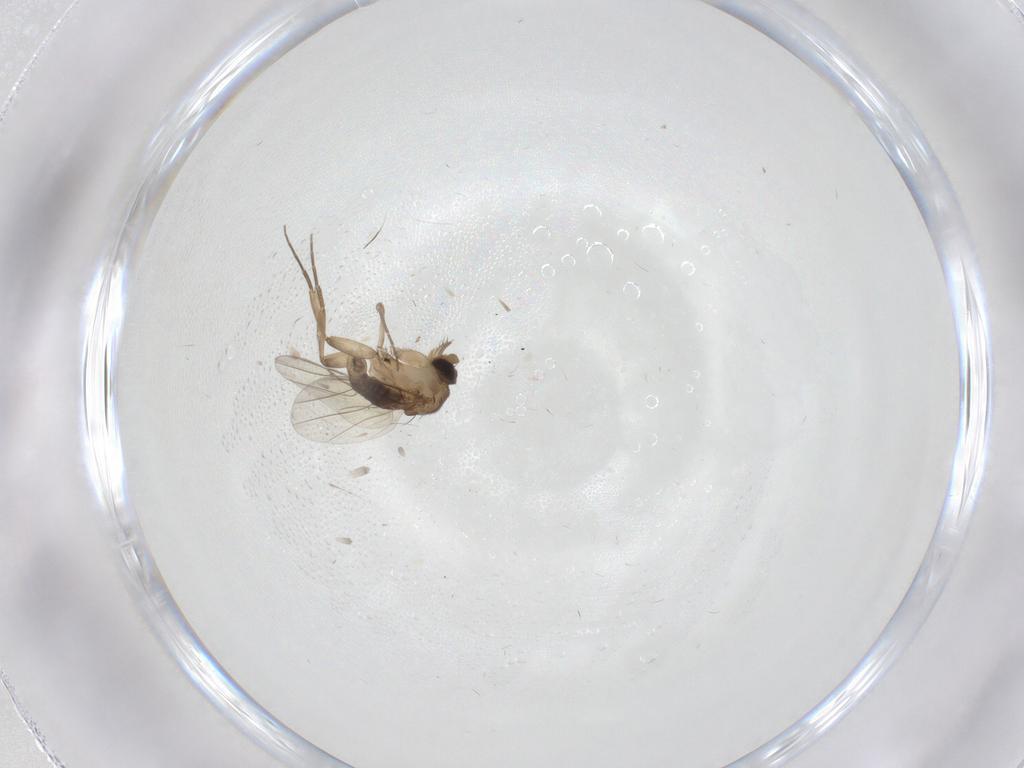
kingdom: Animalia
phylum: Arthropoda
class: Insecta
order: Diptera
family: Phoridae
